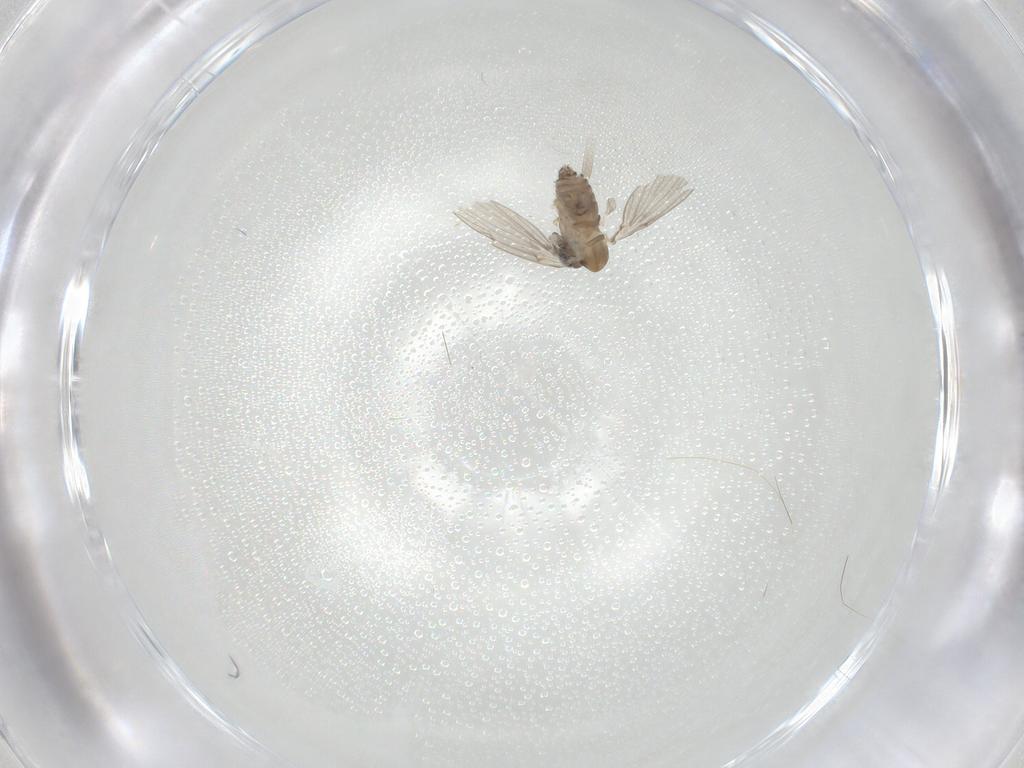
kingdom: Animalia
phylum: Arthropoda
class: Insecta
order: Diptera
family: Psychodidae
